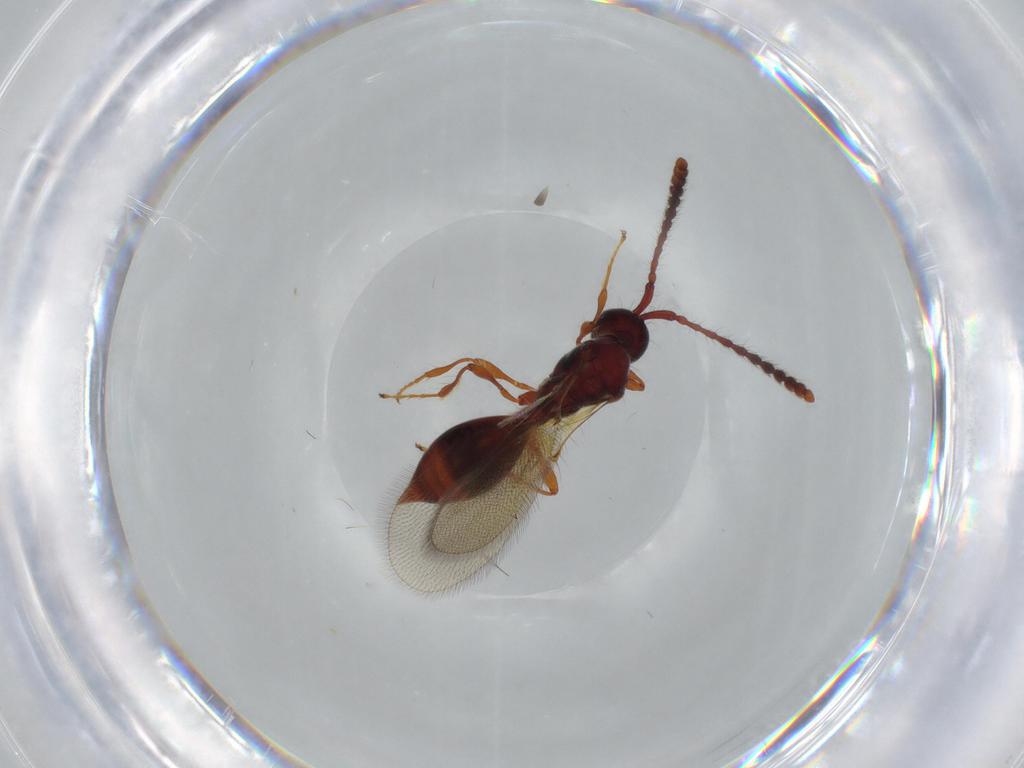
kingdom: Animalia
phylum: Arthropoda
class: Insecta
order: Hymenoptera
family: Diapriidae
